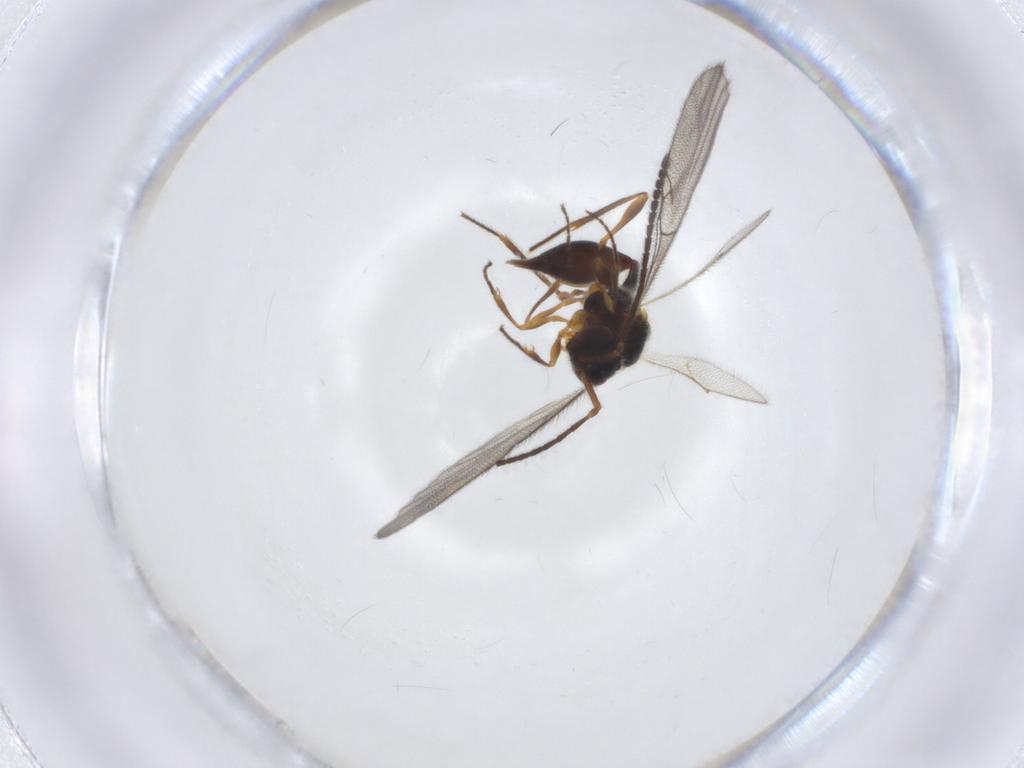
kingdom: Animalia
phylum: Arthropoda
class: Insecta
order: Hymenoptera
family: Diapriidae
